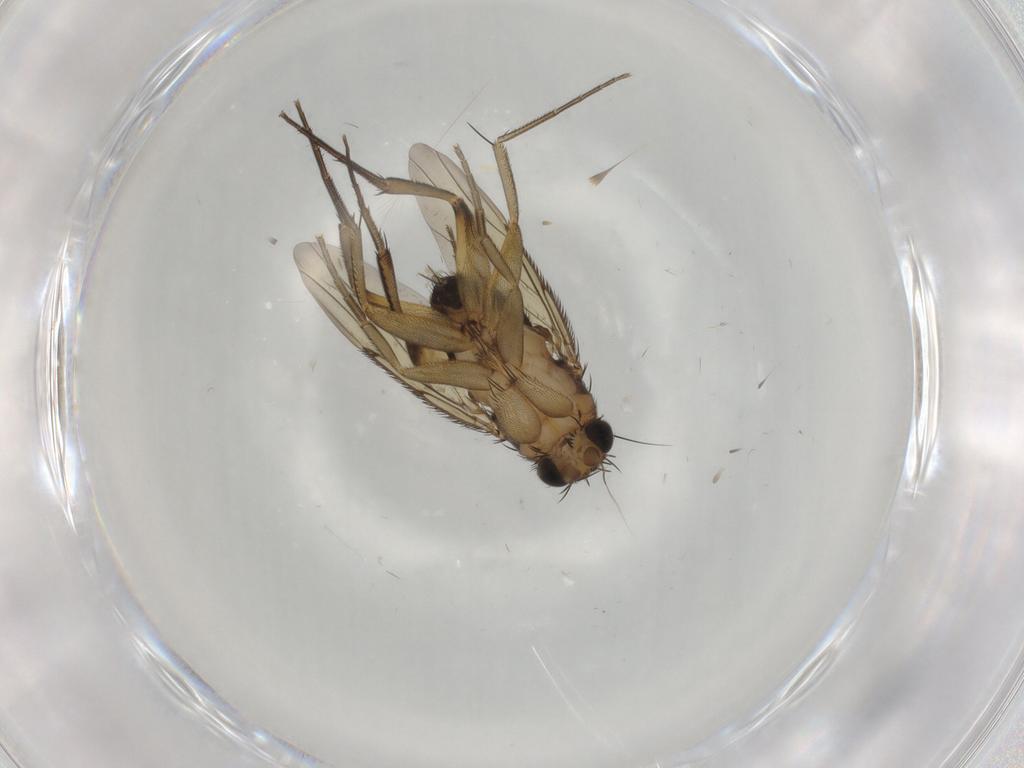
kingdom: Animalia
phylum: Arthropoda
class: Insecta
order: Diptera
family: Phoridae
